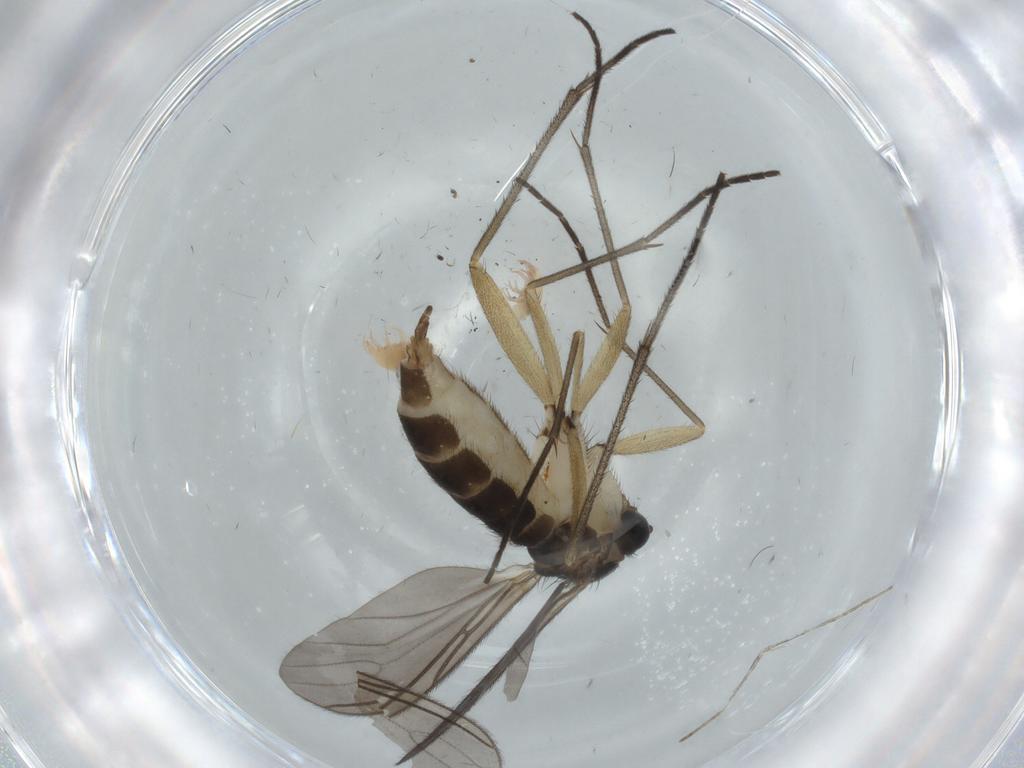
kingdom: Animalia
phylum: Arthropoda
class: Insecta
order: Diptera
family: Sciaridae
